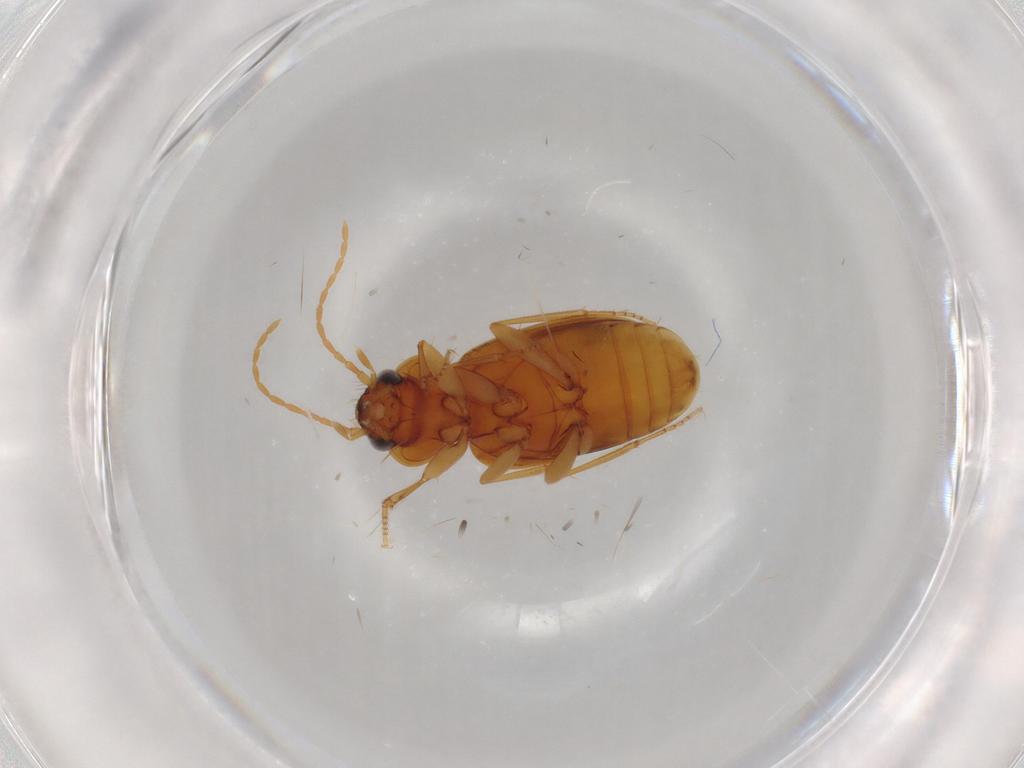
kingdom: Animalia
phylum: Arthropoda
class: Insecta
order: Coleoptera
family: Carabidae
